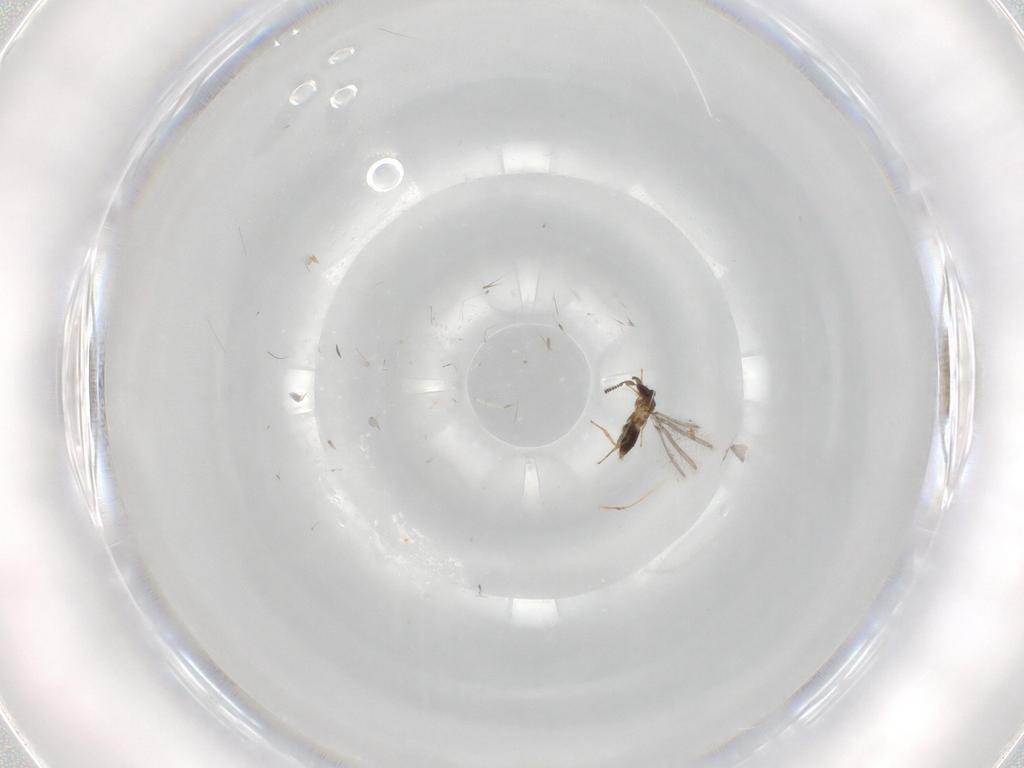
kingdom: Animalia
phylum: Arthropoda
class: Insecta
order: Hymenoptera
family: Mymaridae
